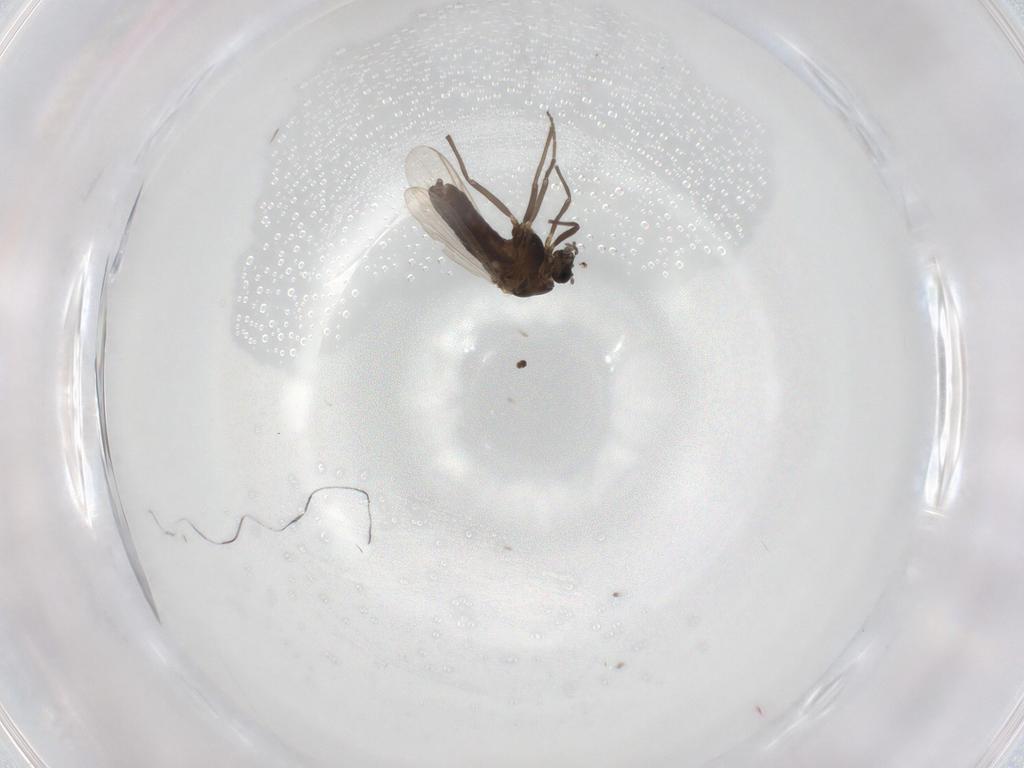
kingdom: Animalia
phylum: Arthropoda
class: Insecta
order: Diptera
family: Chironomidae
